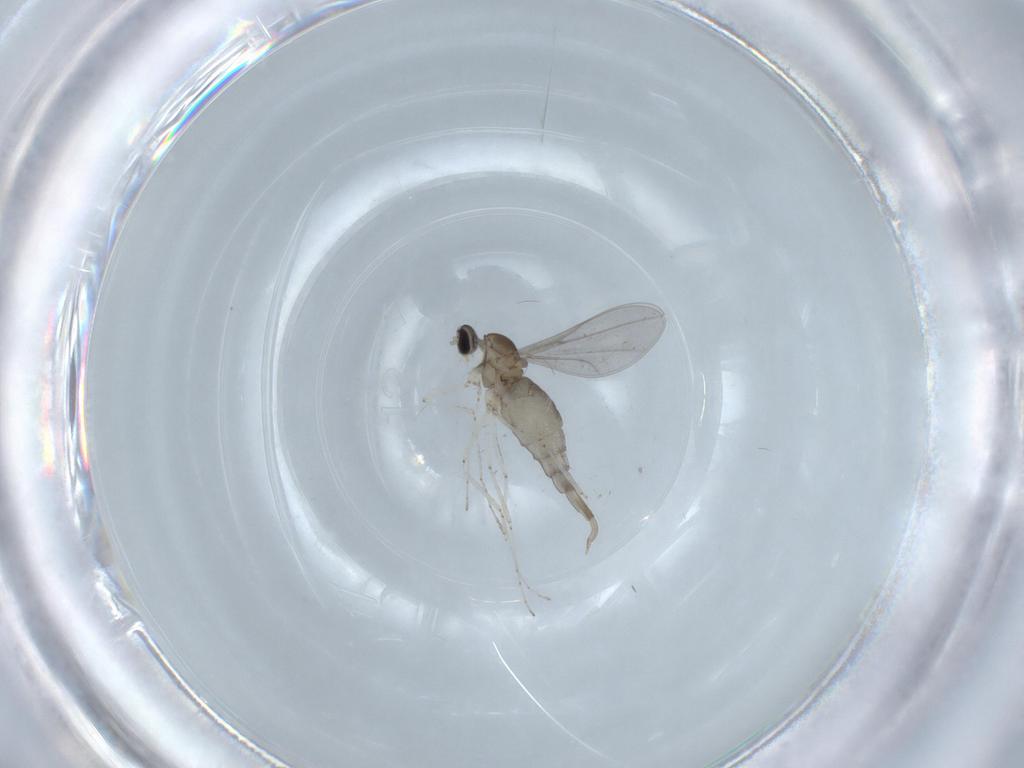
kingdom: Animalia
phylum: Arthropoda
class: Insecta
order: Diptera
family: Cecidomyiidae
